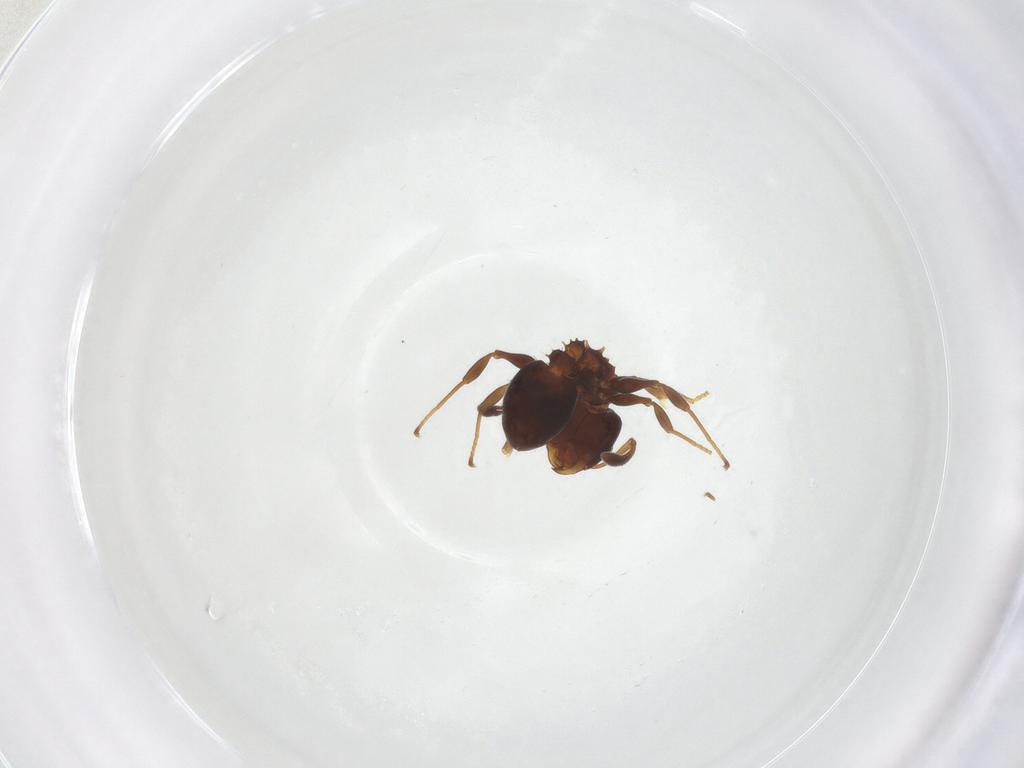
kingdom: Animalia
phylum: Arthropoda
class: Insecta
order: Hymenoptera
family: Formicidae
